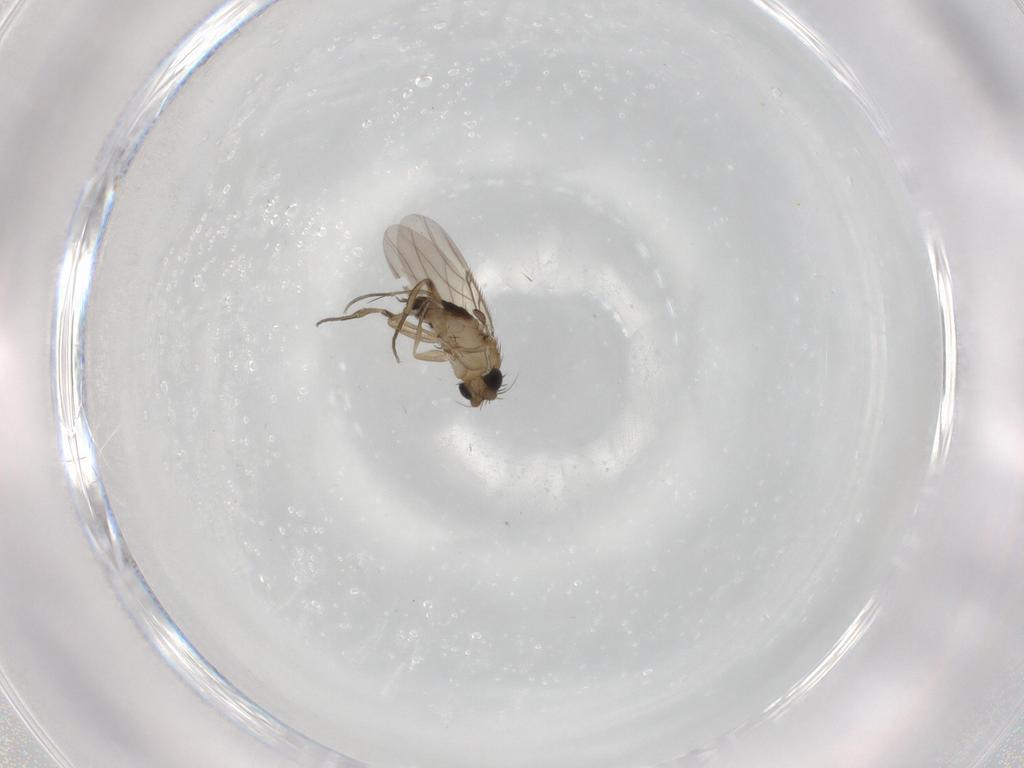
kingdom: Animalia
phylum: Arthropoda
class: Insecta
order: Diptera
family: Phoridae
